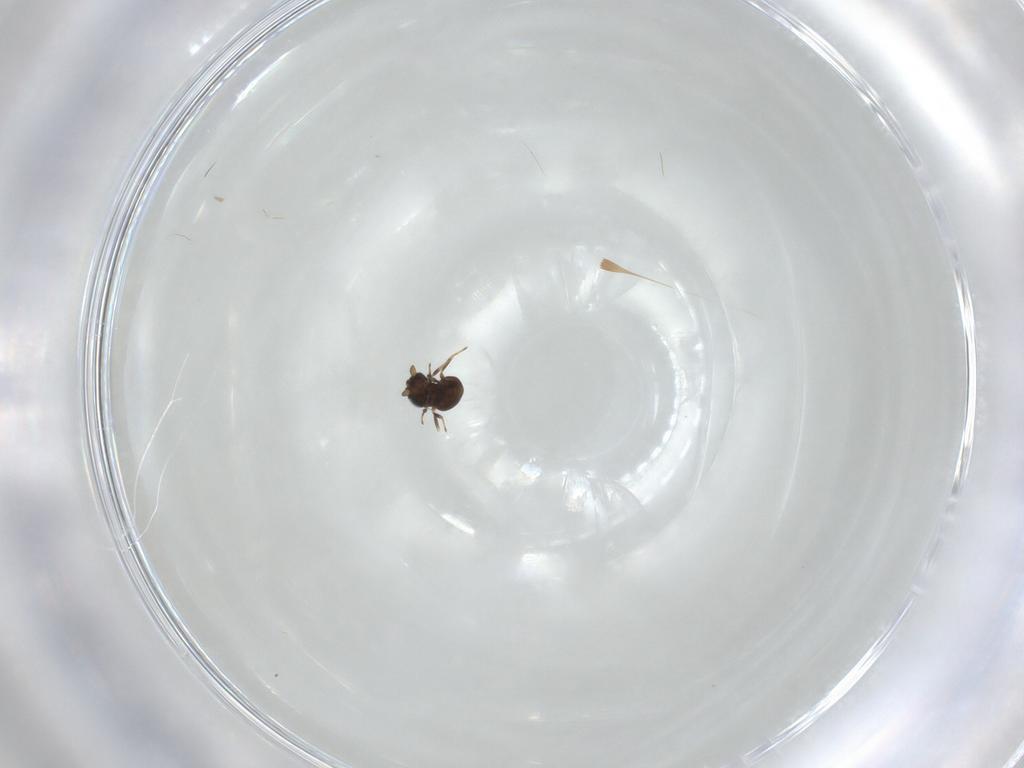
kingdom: Animalia
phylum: Arthropoda
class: Insecta
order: Hymenoptera
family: Scelionidae
